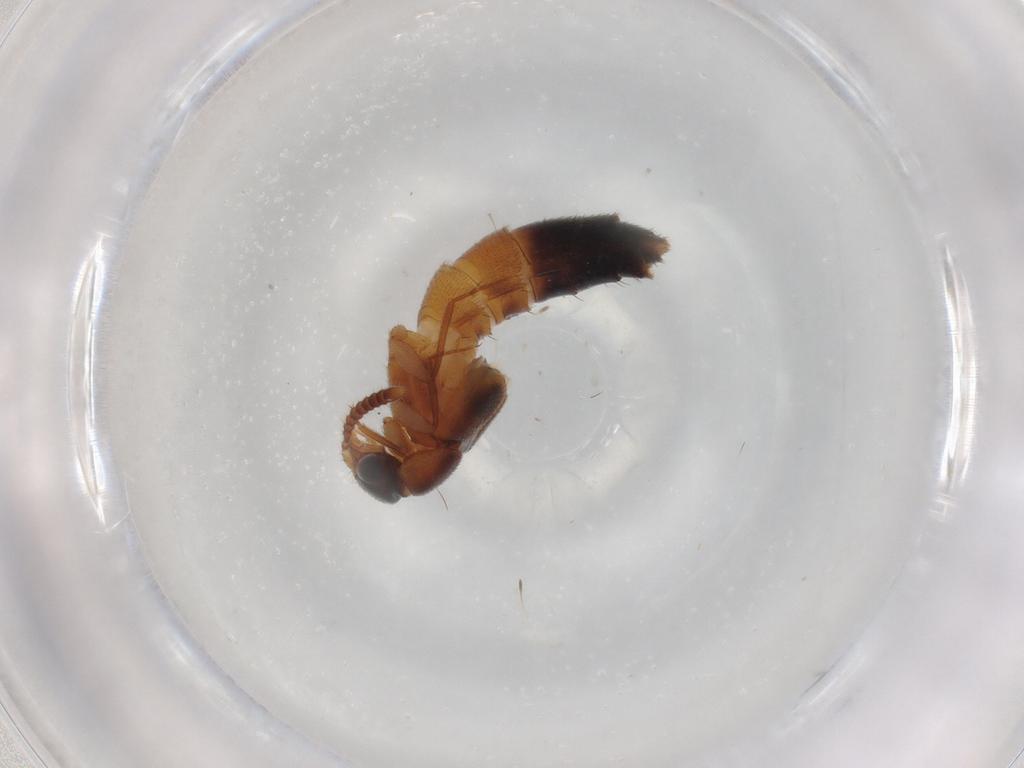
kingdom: Animalia
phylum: Arthropoda
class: Insecta
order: Coleoptera
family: Staphylinidae
